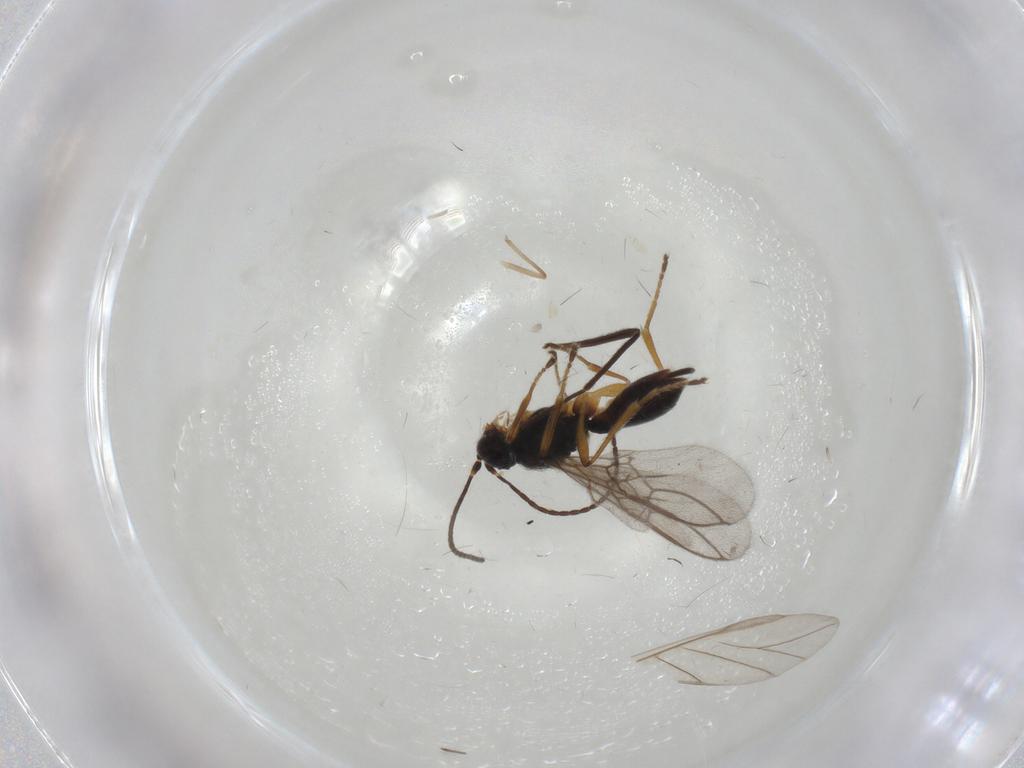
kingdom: Animalia
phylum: Arthropoda
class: Insecta
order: Hymenoptera
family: Braconidae
